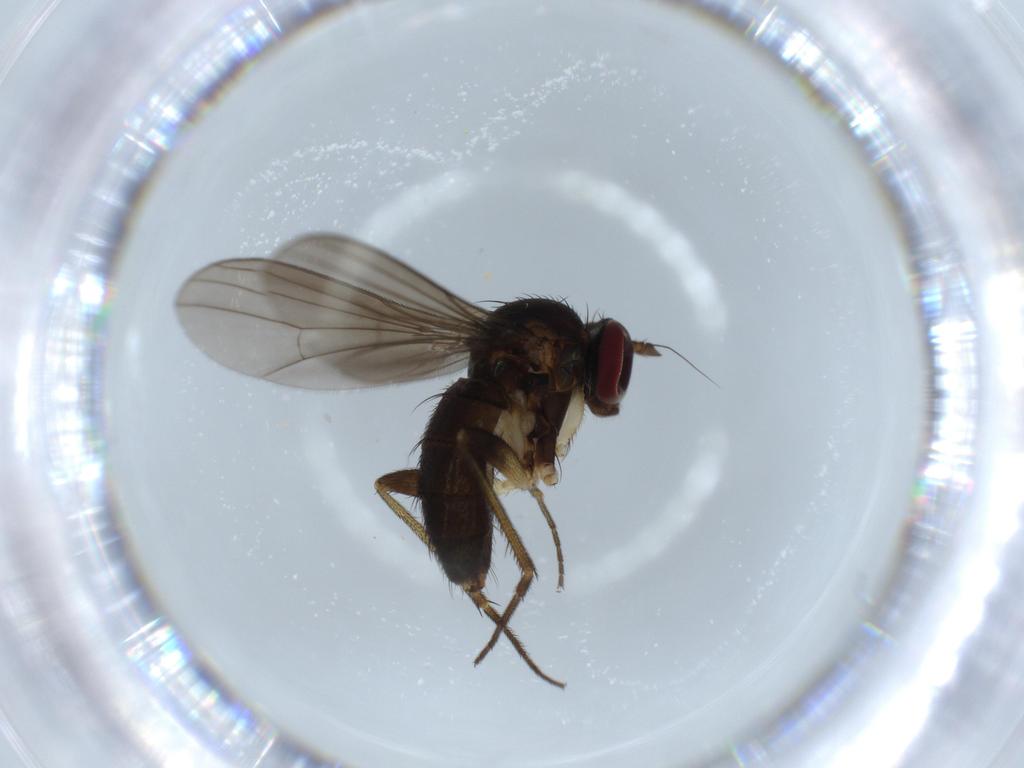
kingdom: Animalia
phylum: Arthropoda
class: Insecta
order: Diptera
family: Dolichopodidae
